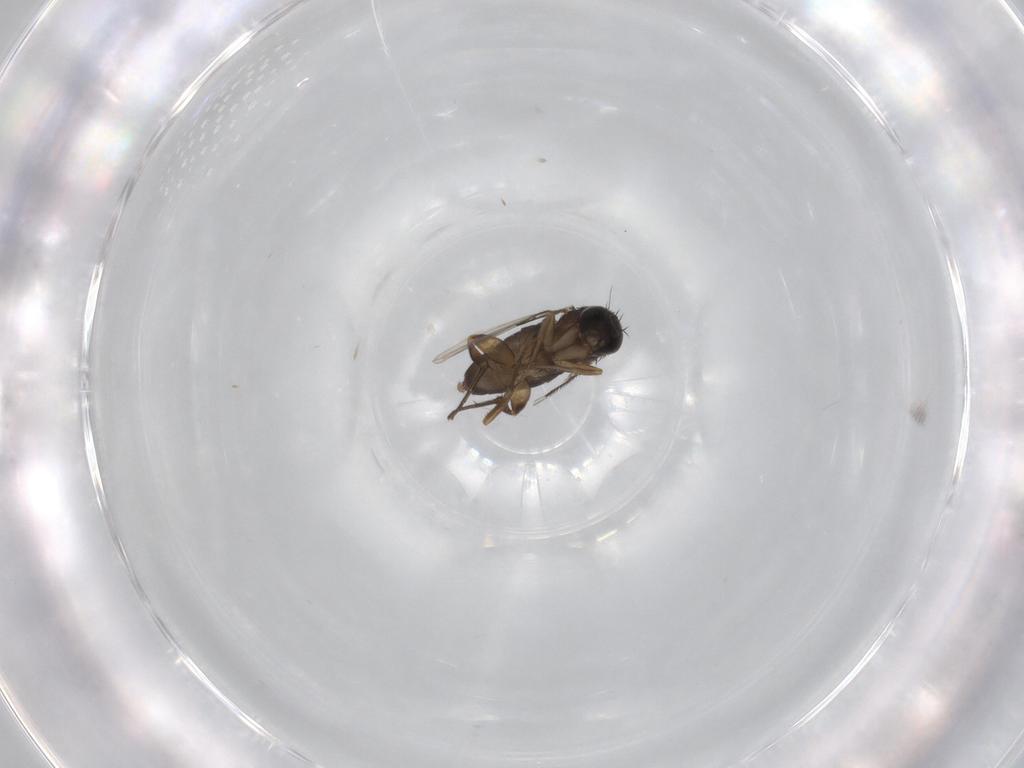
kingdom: Animalia
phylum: Arthropoda
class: Insecta
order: Diptera
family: Phoridae
